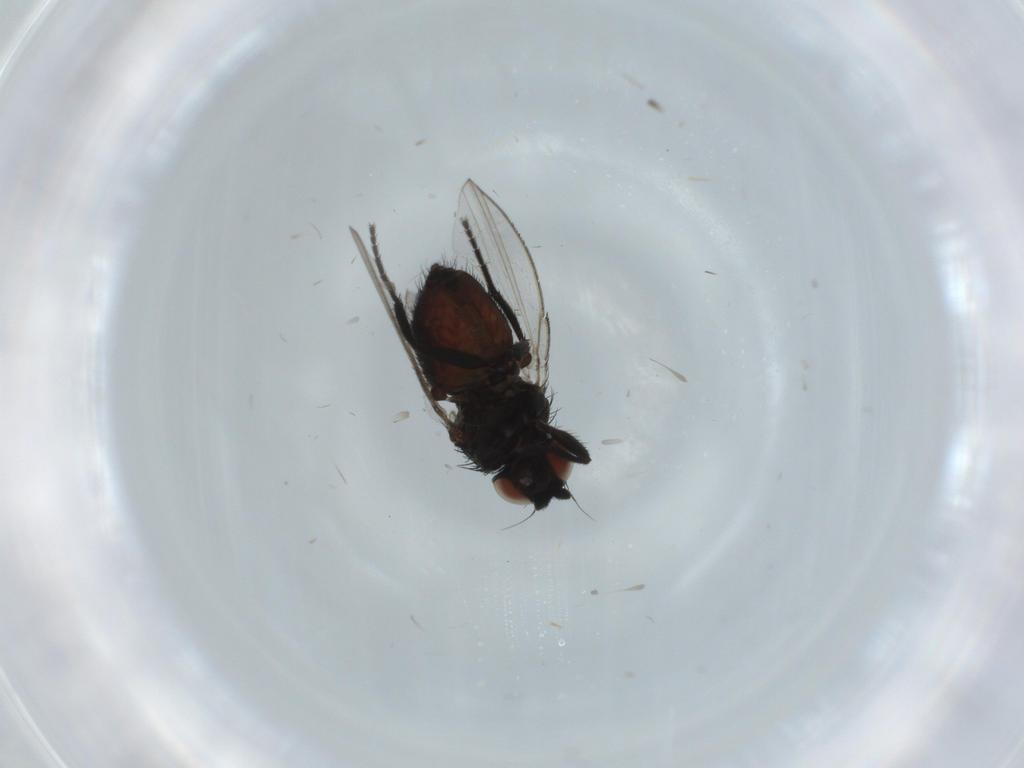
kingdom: Animalia
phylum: Arthropoda
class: Insecta
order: Diptera
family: Milichiidae
